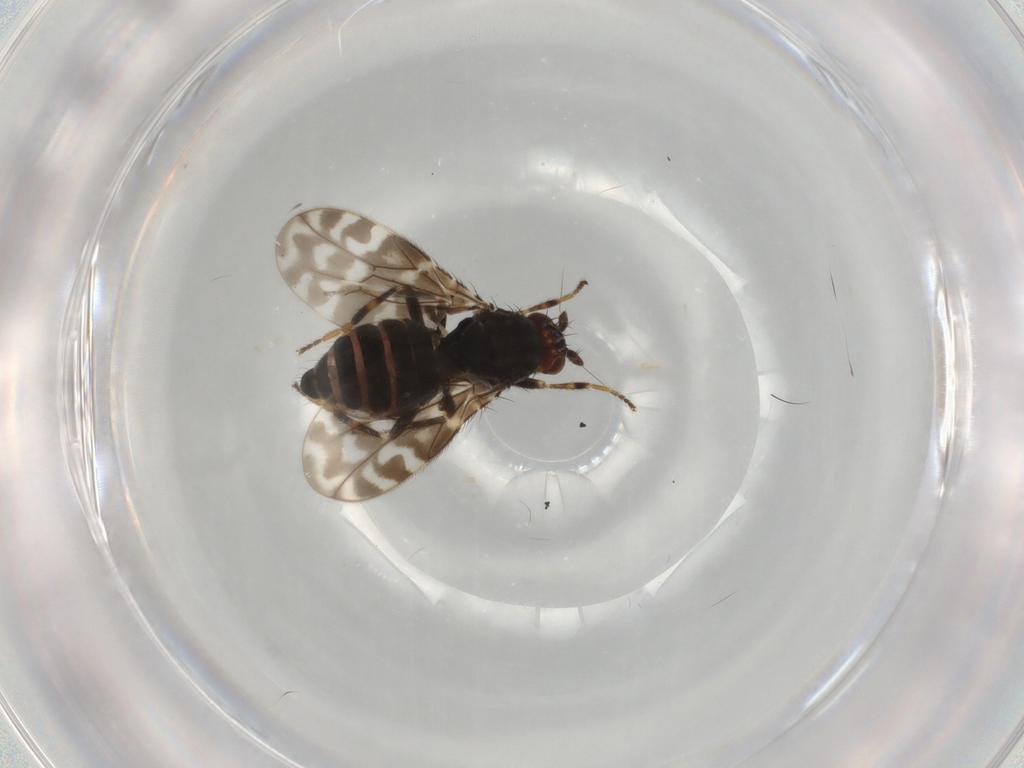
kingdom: Animalia
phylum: Arthropoda
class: Insecta
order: Diptera
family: Sphaeroceridae
